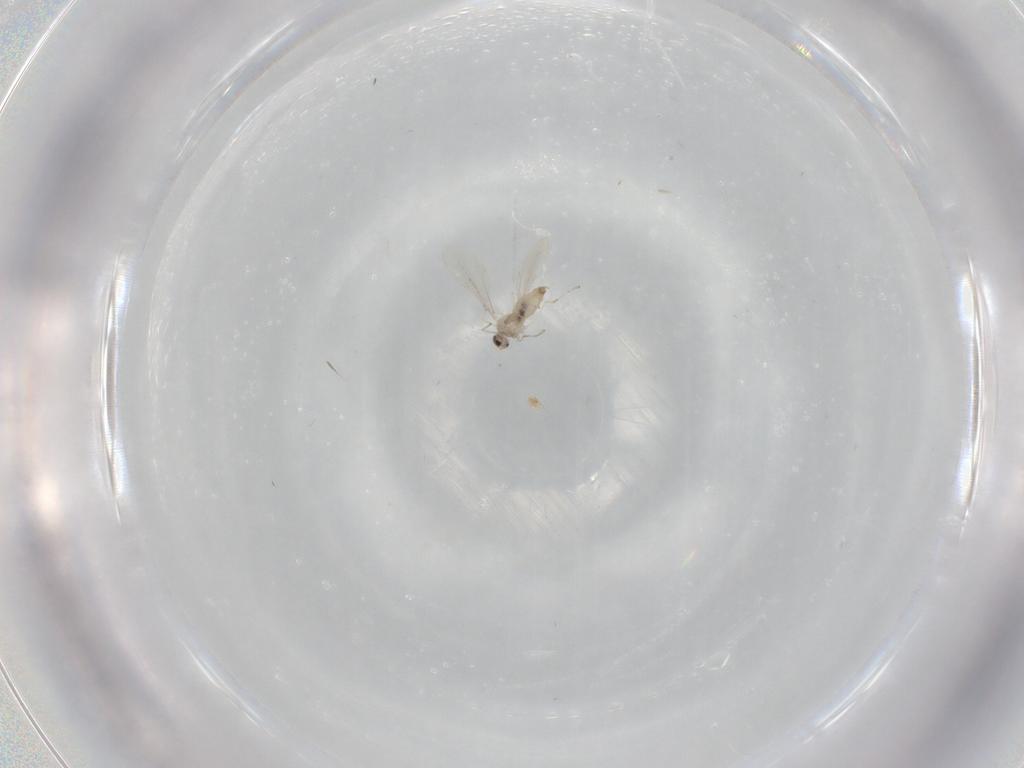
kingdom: Animalia
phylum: Arthropoda
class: Insecta
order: Diptera
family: Cecidomyiidae
